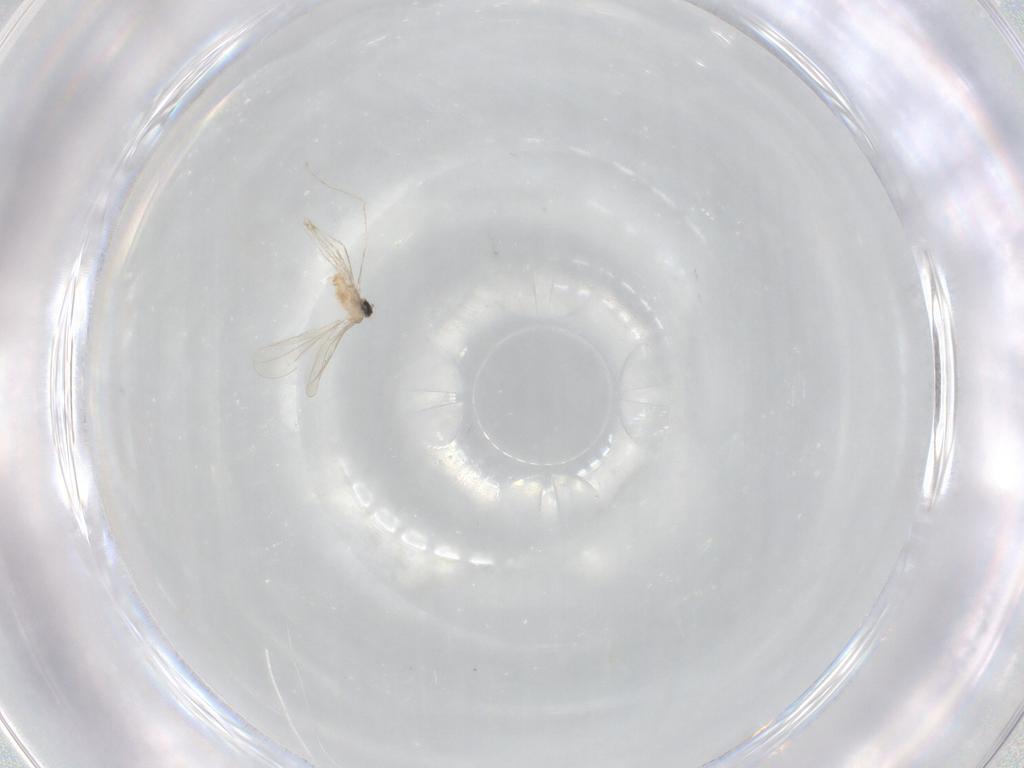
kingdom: Animalia
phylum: Arthropoda
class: Insecta
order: Diptera
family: Cecidomyiidae
